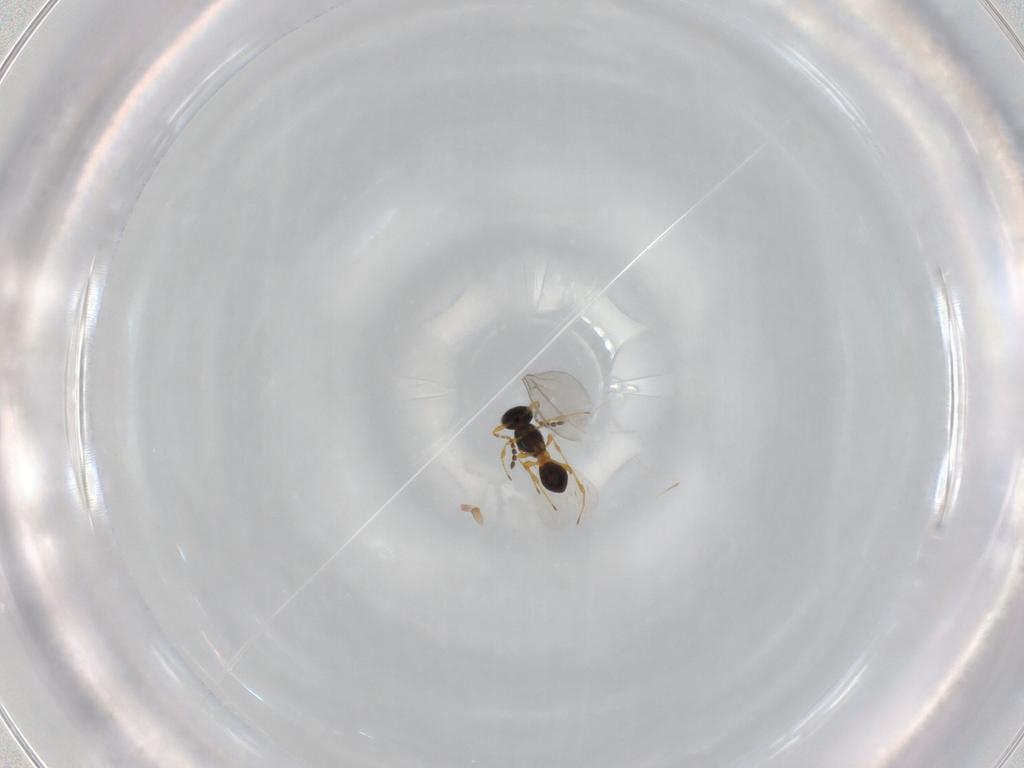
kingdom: Animalia
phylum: Arthropoda
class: Insecta
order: Hymenoptera
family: Platygastridae
